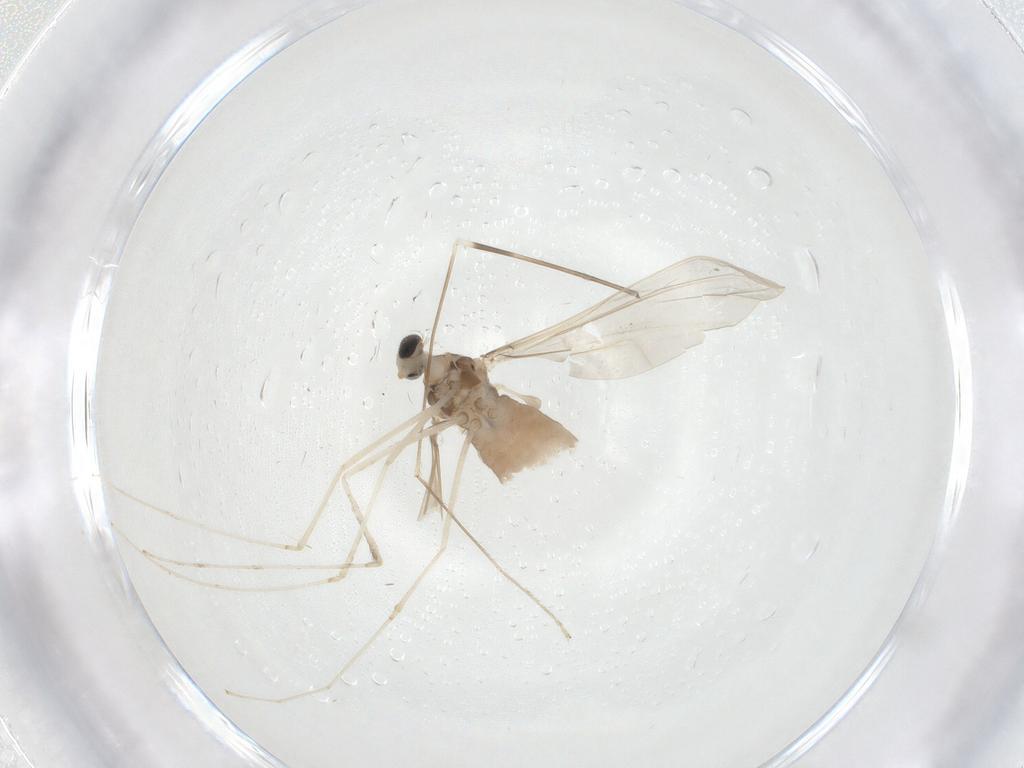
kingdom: Animalia
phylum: Arthropoda
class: Insecta
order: Diptera
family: Limoniidae
